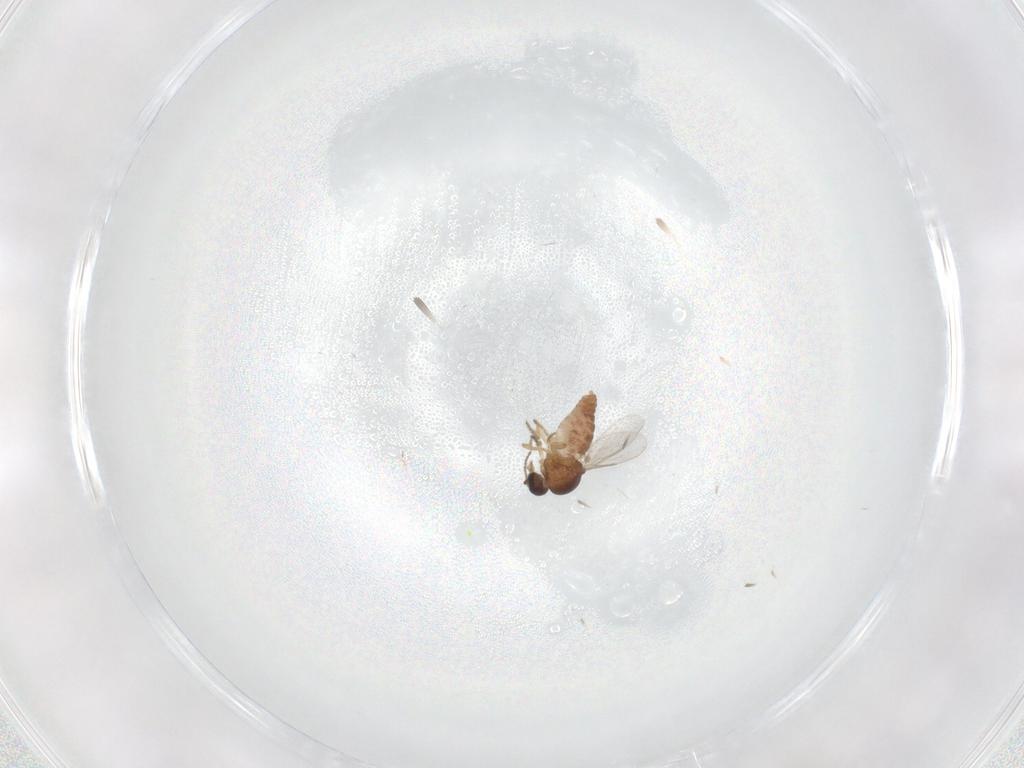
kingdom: Animalia
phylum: Arthropoda
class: Insecta
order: Diptera
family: Ceratopogonidae
